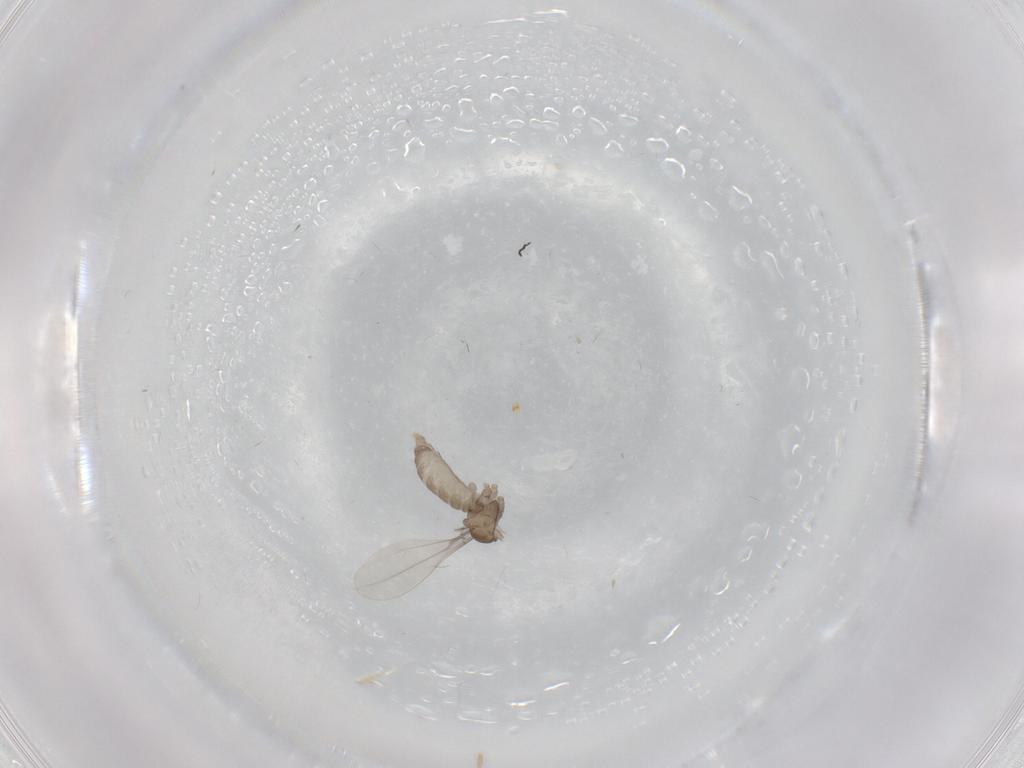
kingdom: Animalia
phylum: Arthropoda
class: Insecta
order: Diptera
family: Cecidomyiidae
